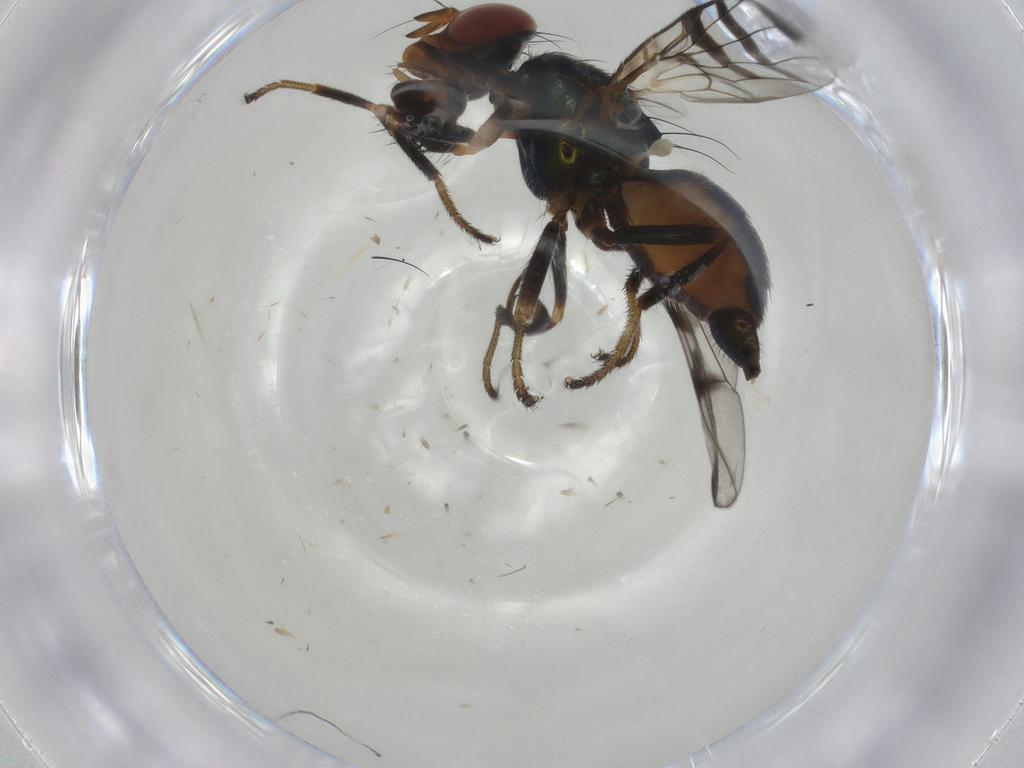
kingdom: Animalia
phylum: Arthropoda
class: Insecta
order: Diptera
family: Platystomatidae
